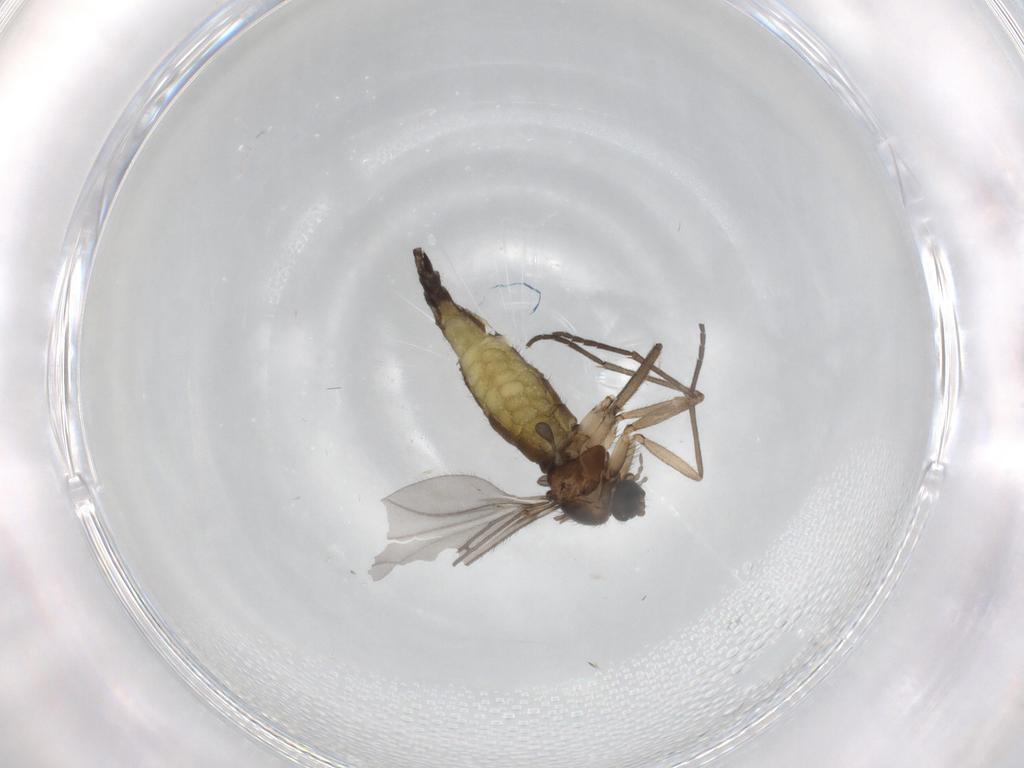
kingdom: Animalia
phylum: Arthropoda
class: Insecta
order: Diptera
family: Sciaridae
